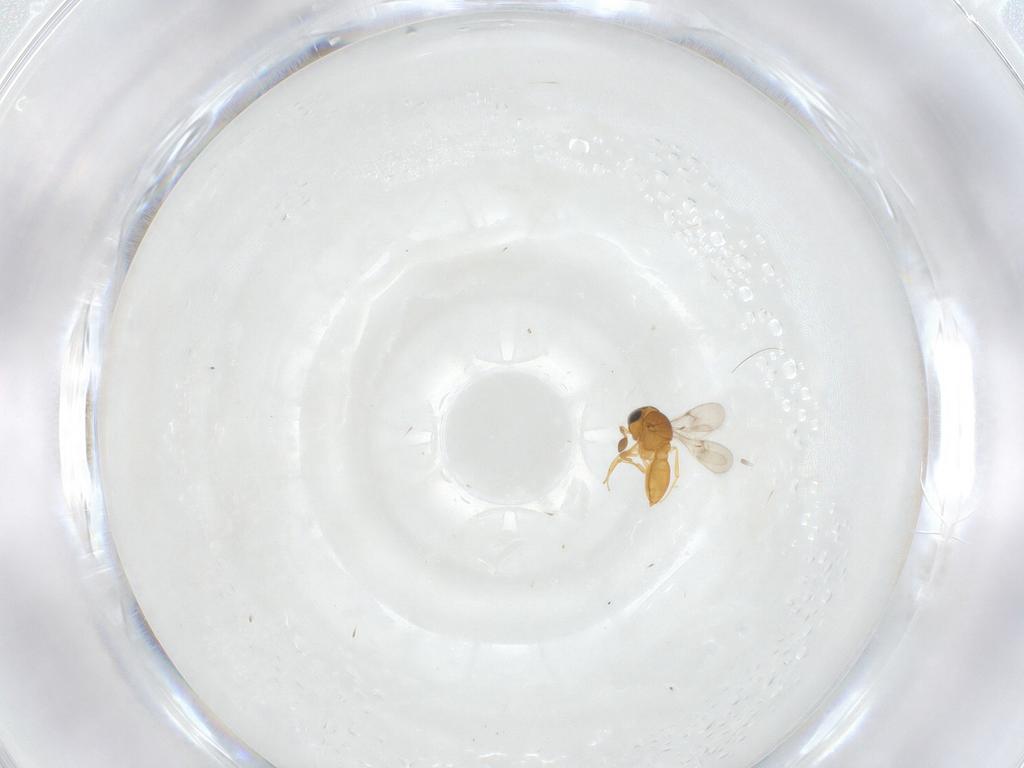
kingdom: Animalia
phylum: Arthropoda
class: Insecta
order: Hymenoptera
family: Scelionidae
